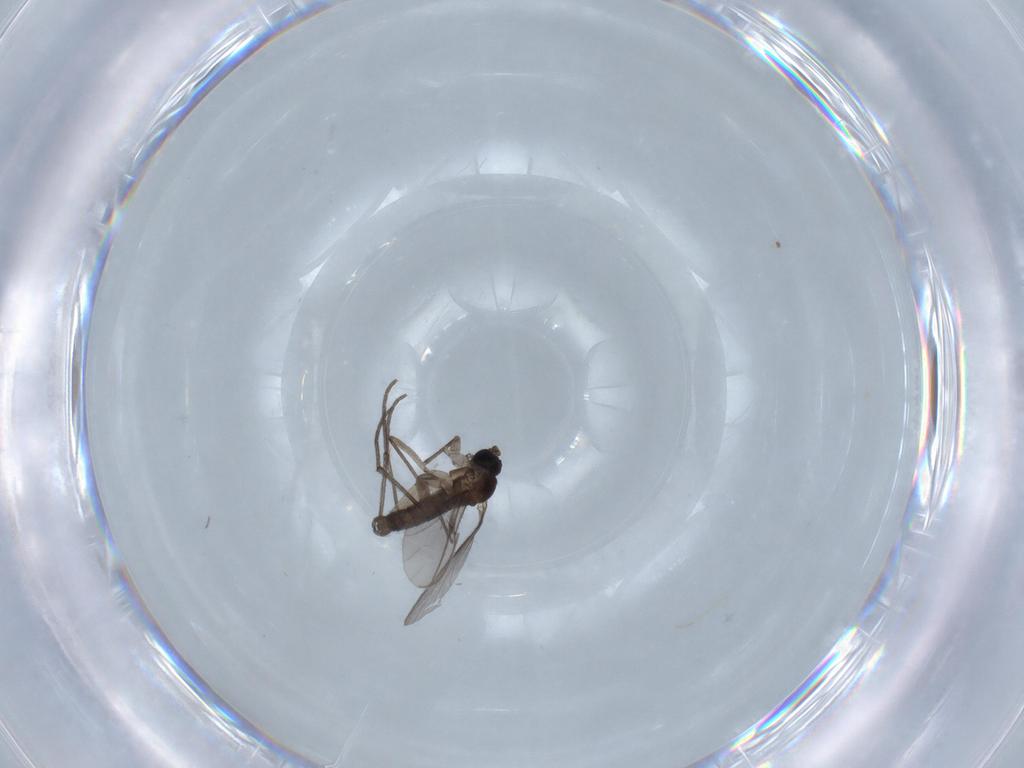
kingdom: Animalia
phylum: Arthropoda
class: Insecta
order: Diptera
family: Sciaridae
